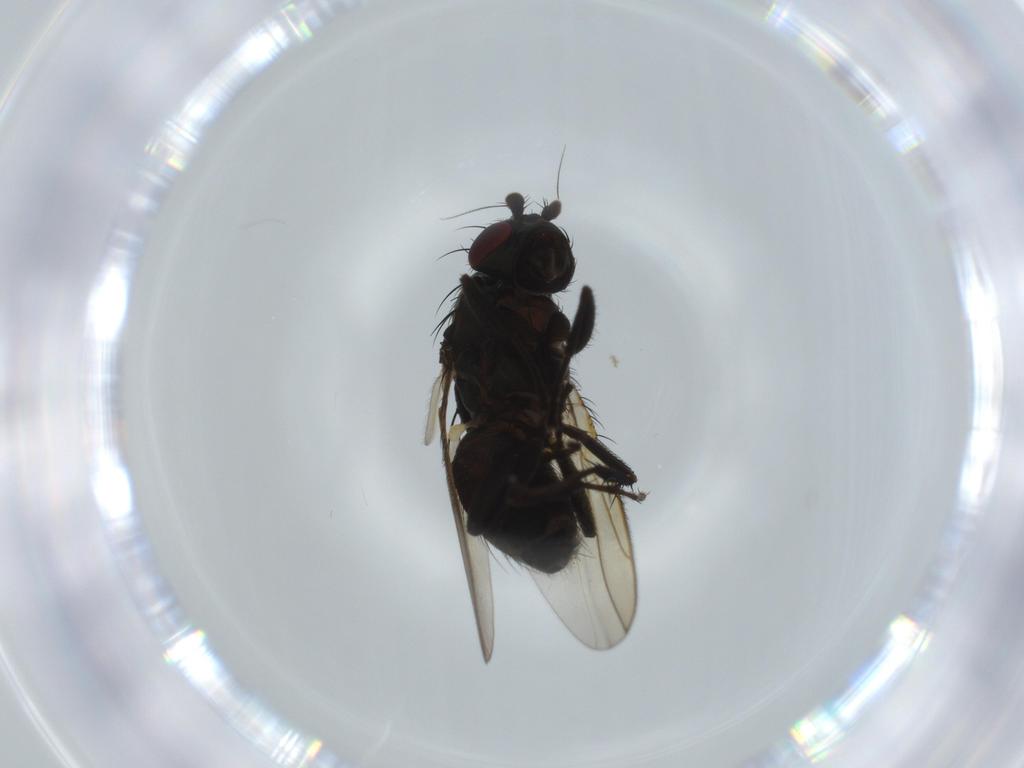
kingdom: Animalia
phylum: Arthropoda
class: Insecta
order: Diptera
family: Sphaeroceridae
